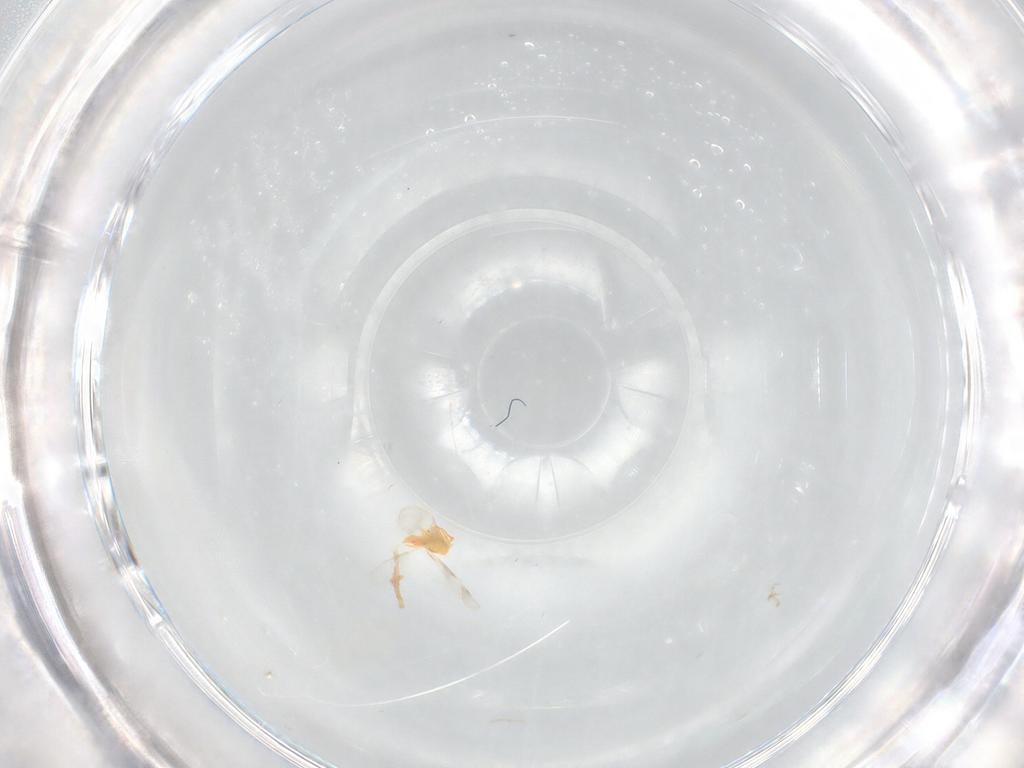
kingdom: Animalia
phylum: Arthropoda
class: Insecta
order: Hemiptera
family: Aleyrodidae
